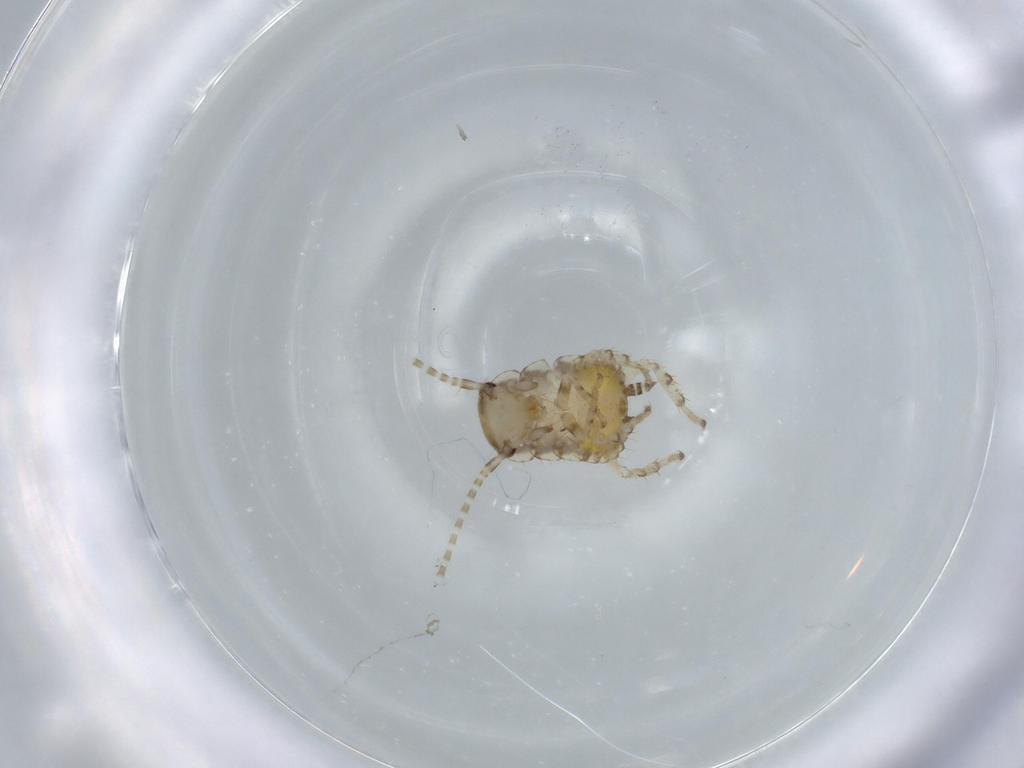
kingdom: Animalia
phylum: Arthropoda
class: Insecta
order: Blattodea
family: Ectobiidae
